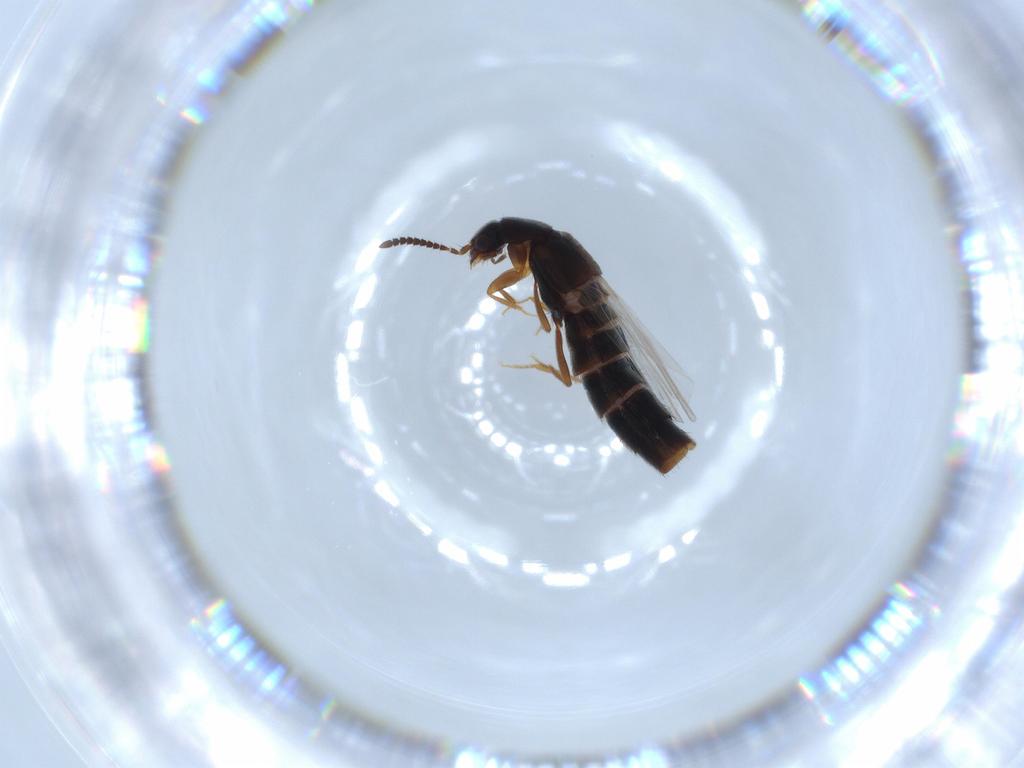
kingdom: Animalia
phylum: Arthropoda
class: Insecta
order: Coleoptera
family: Staphylinidae
